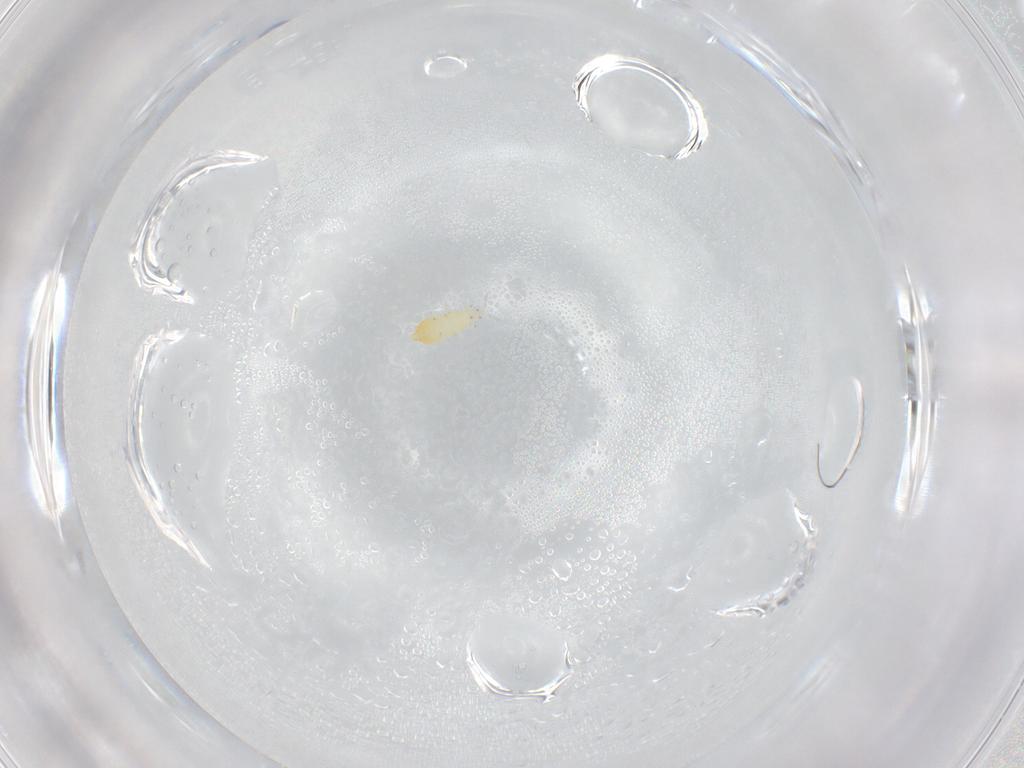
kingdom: Animalia
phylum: Arthropoda
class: Insecta
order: Thysanoptera
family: Thripidae
